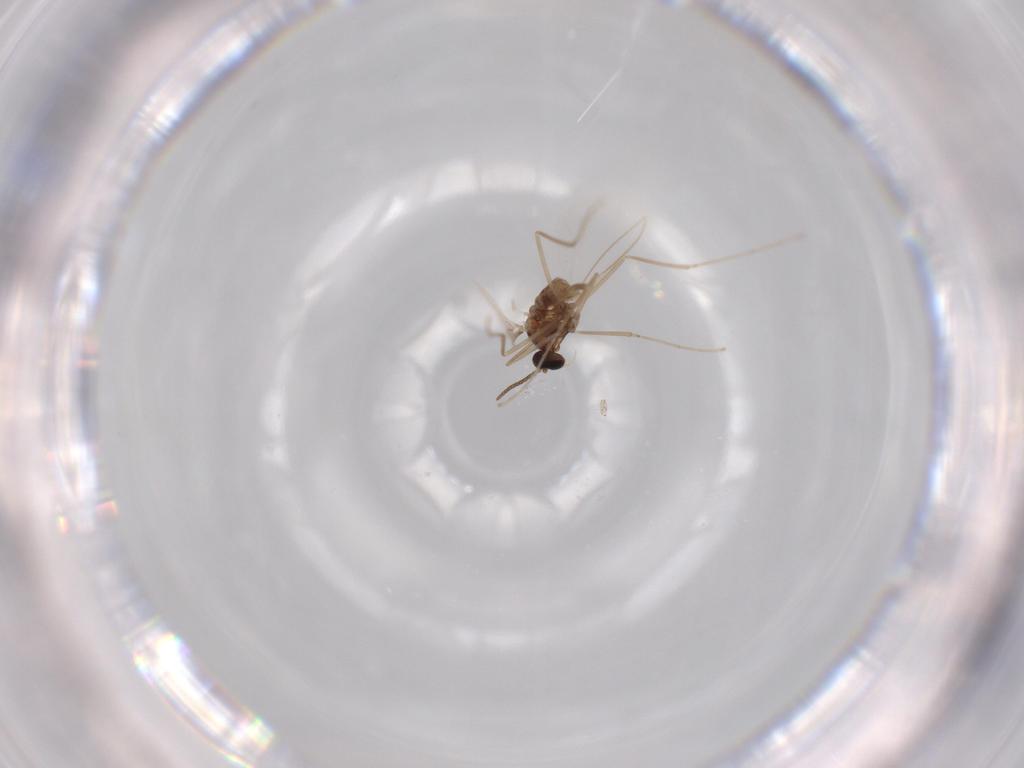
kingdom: Animalia
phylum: Arthropoda
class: Insecta
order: Diptera
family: Cecidomyiidae
